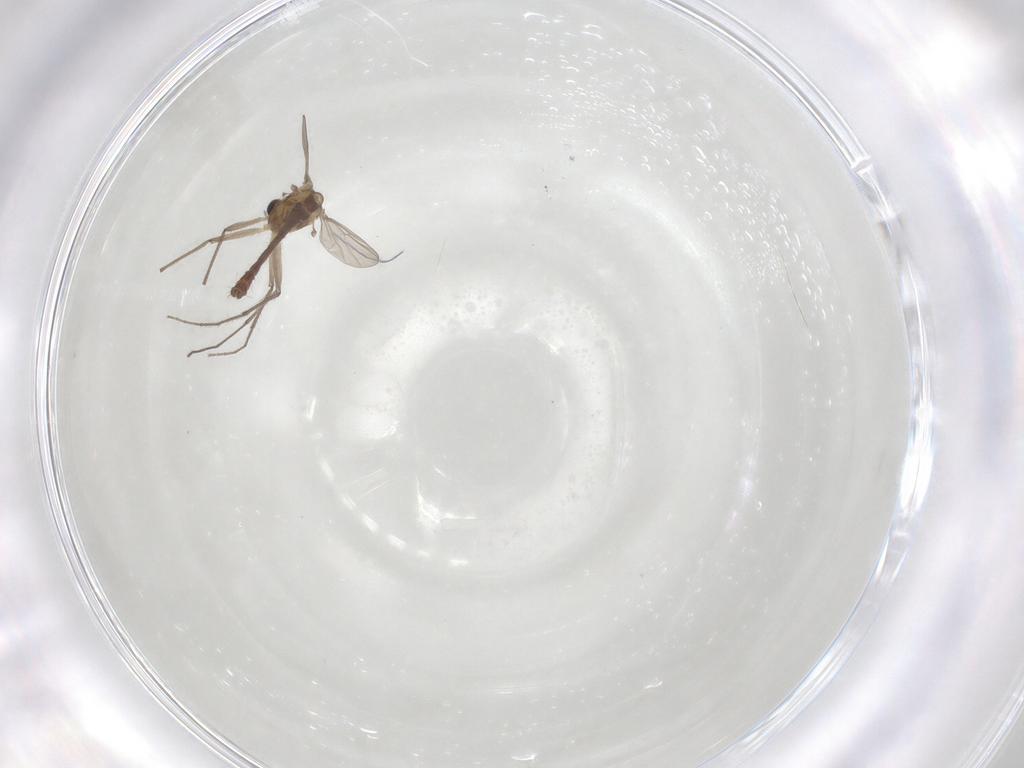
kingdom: Animalia
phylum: Arthropoda
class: Insecta
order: Diptera
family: Chironomidae
